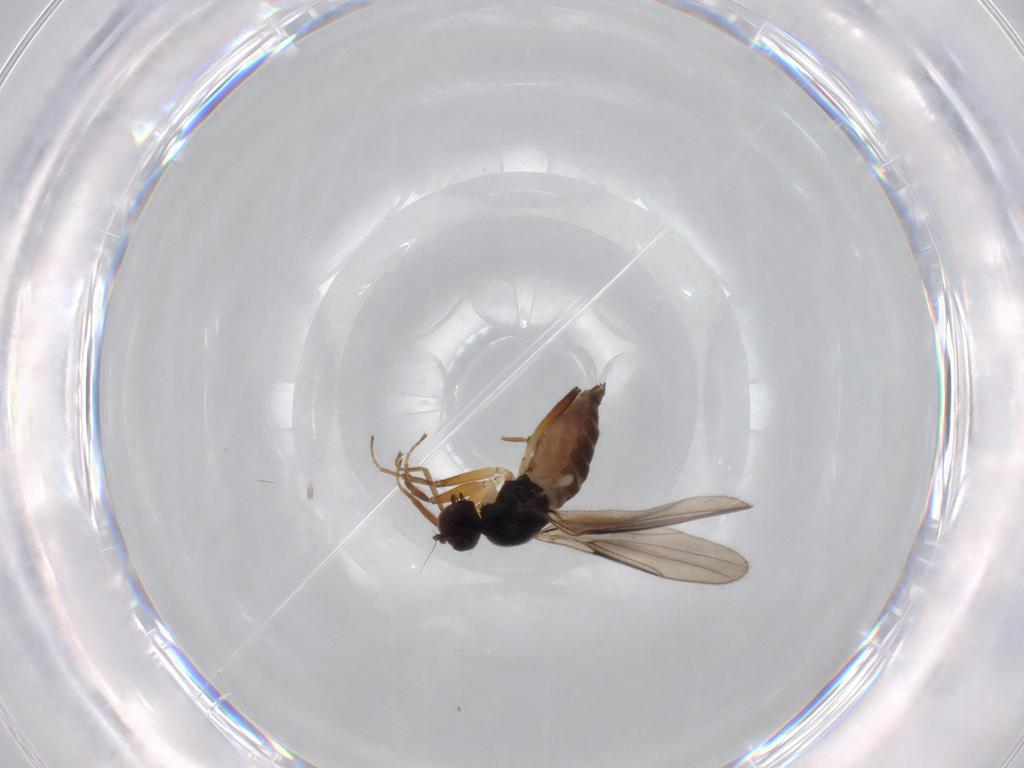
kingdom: Animalia
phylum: Arthropoda
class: Insecta
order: Diptera
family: Hybotidae
